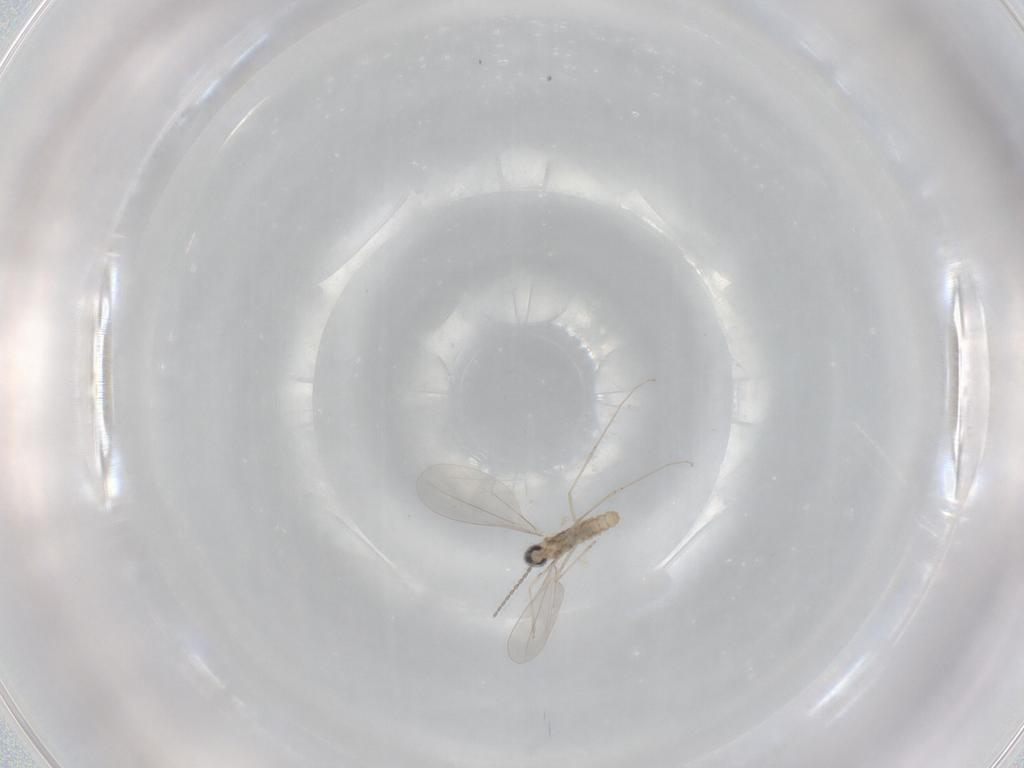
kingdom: Animalia
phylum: Arthropoda
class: Insecta
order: Diptera
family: Cecidomyiidae
